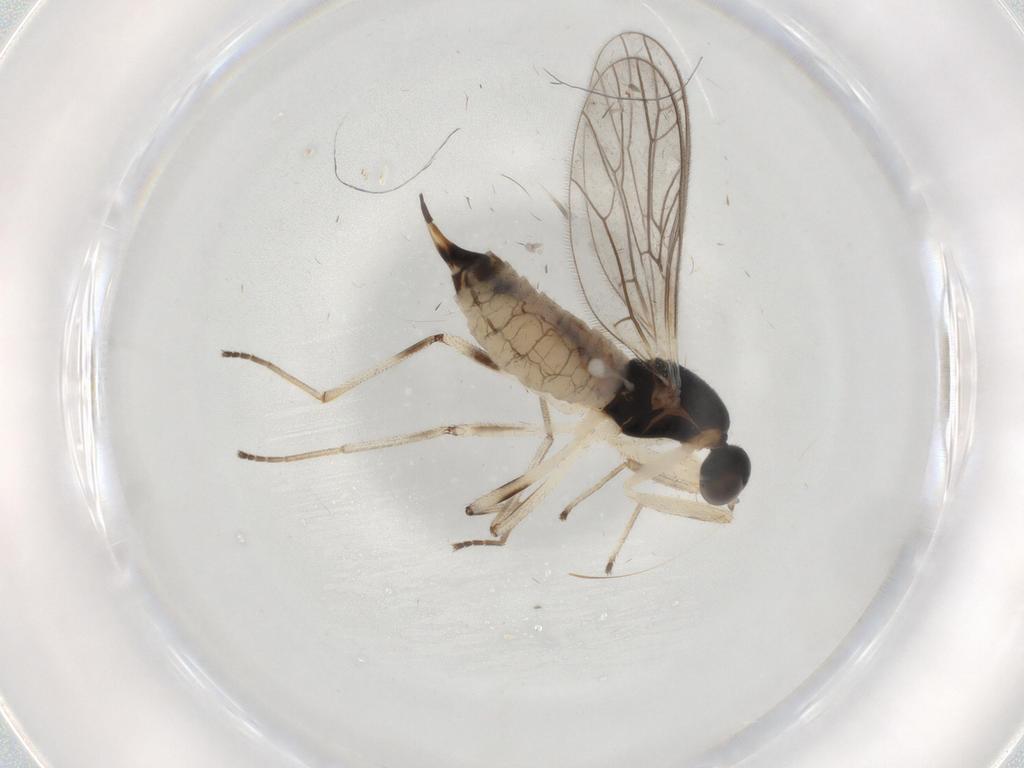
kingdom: Animalia
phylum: Arthropoda
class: Insecta
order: Diptera
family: Empididae
